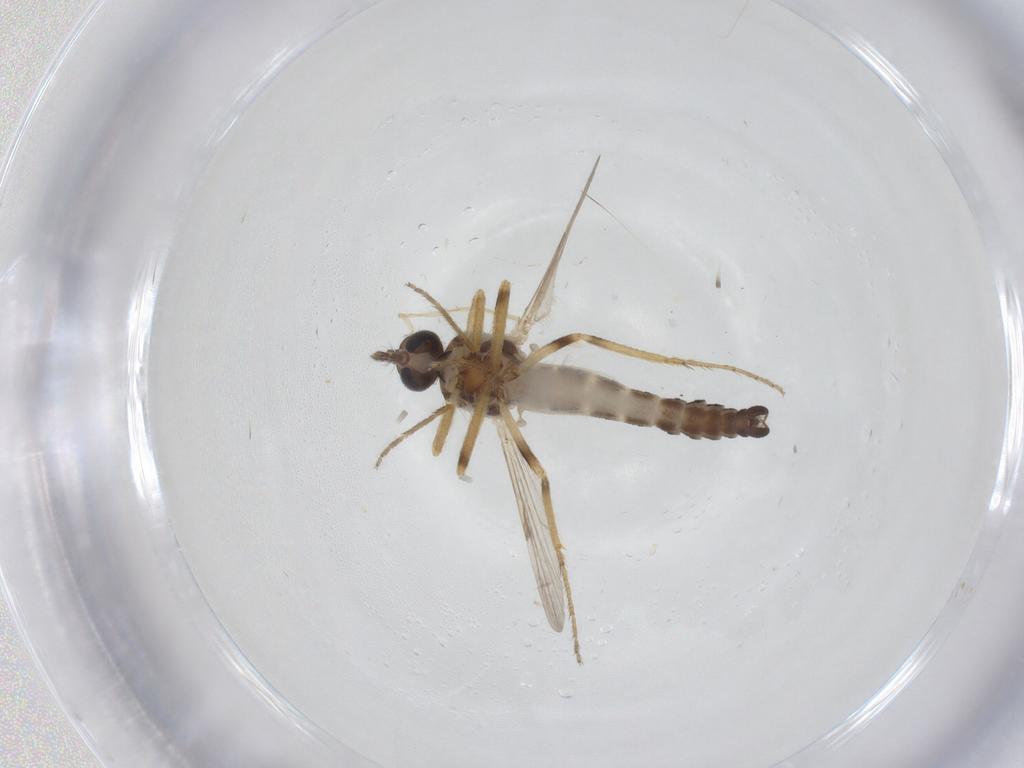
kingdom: Animalia
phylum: Arthropoda
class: Insecta
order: Diptera
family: Ceratopogonidae
